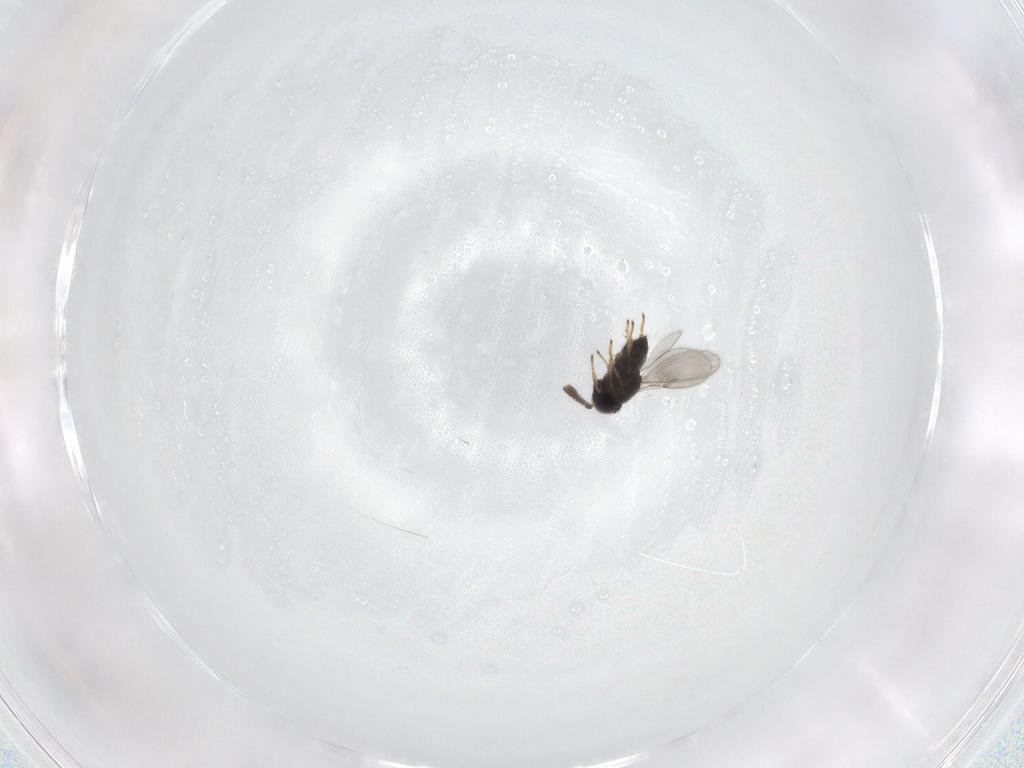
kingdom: Animalia
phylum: Arthropoda
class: Insecta
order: Hymenoptera
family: Encyrtidae
